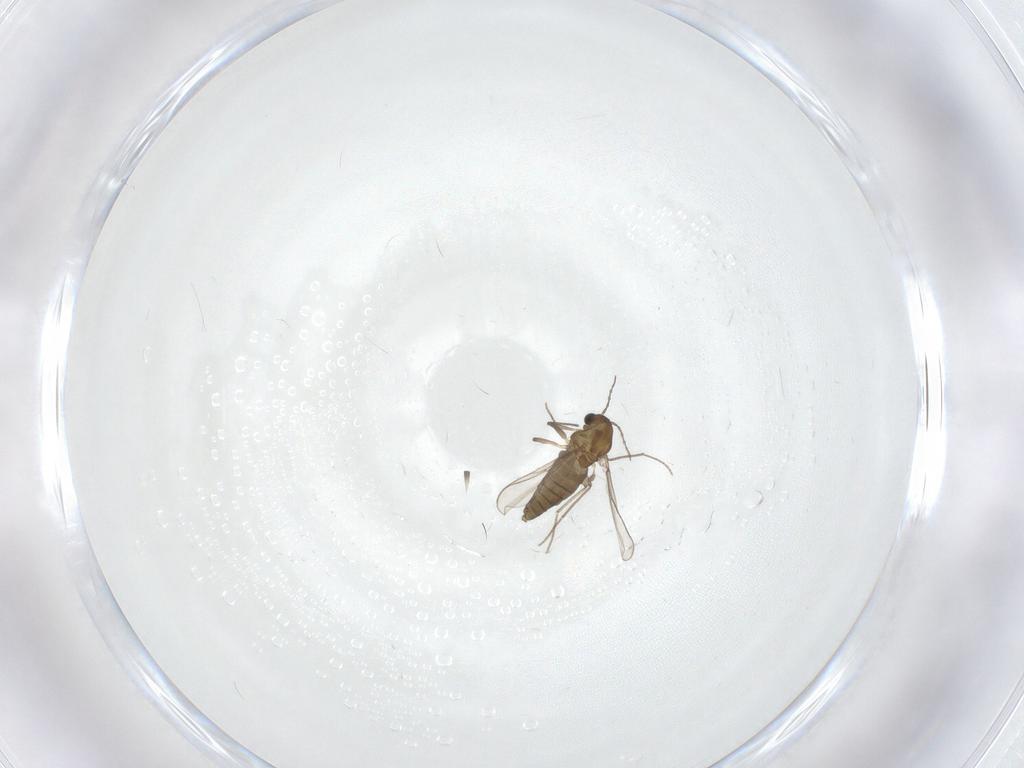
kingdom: Animalia
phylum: Arthropoda
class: Insecta
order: Diptera
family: Chironomidae
